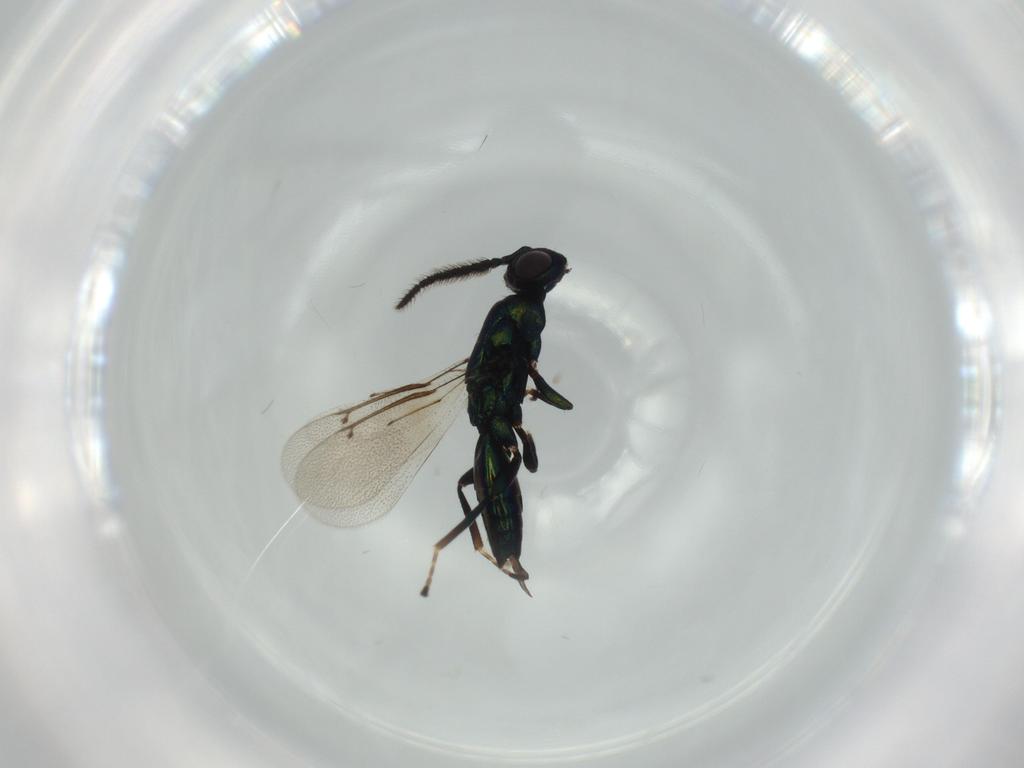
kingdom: Animalia
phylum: Arthropoda
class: Insecta
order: Hymenoptera
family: Eulophidae
